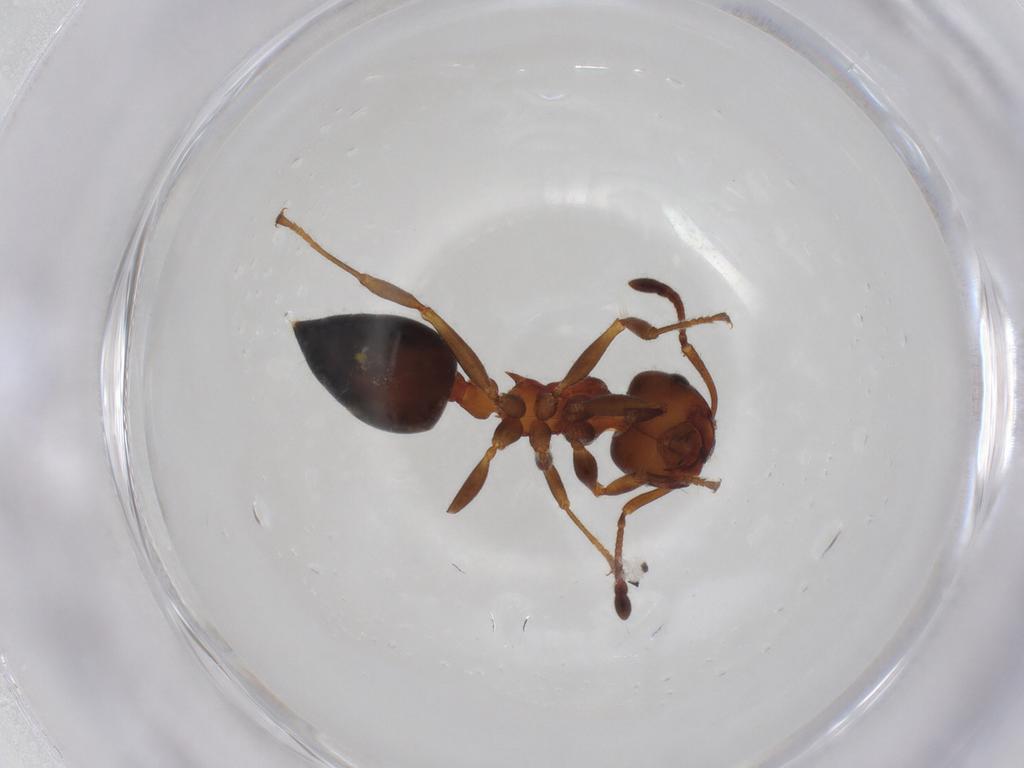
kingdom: Animalia
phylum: Arthropoda
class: Insecta
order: Hymenoptera
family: Formicidae
